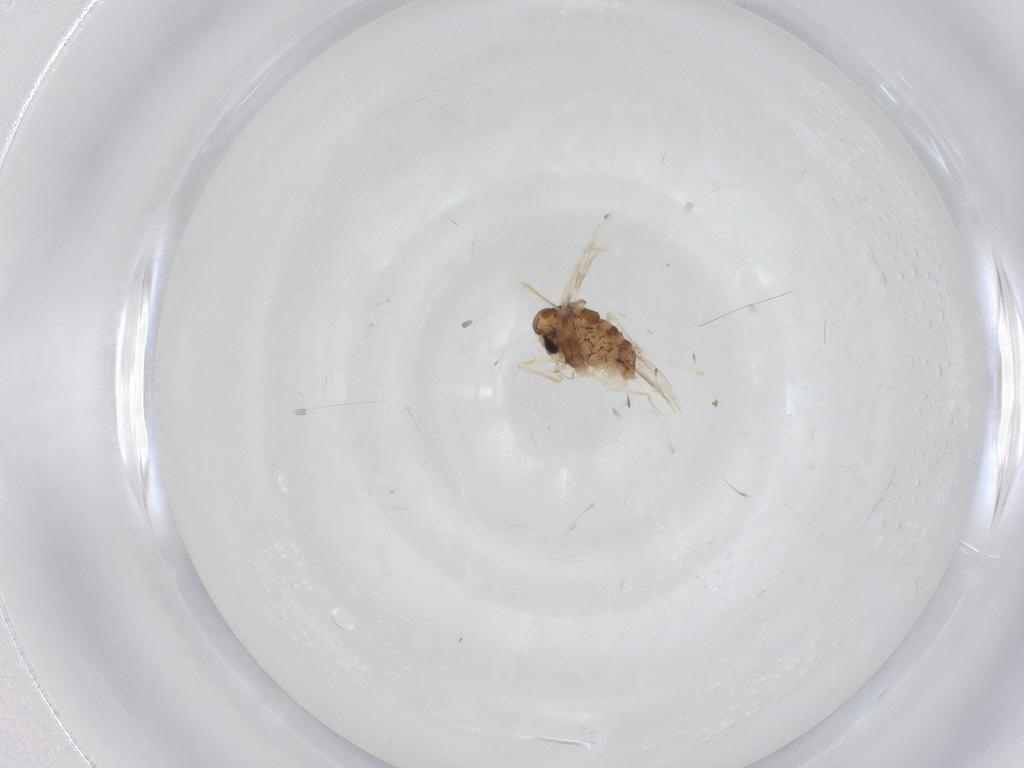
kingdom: Animalia
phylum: Arthropoda
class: Insecta
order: Diptera
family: Chironomidae
